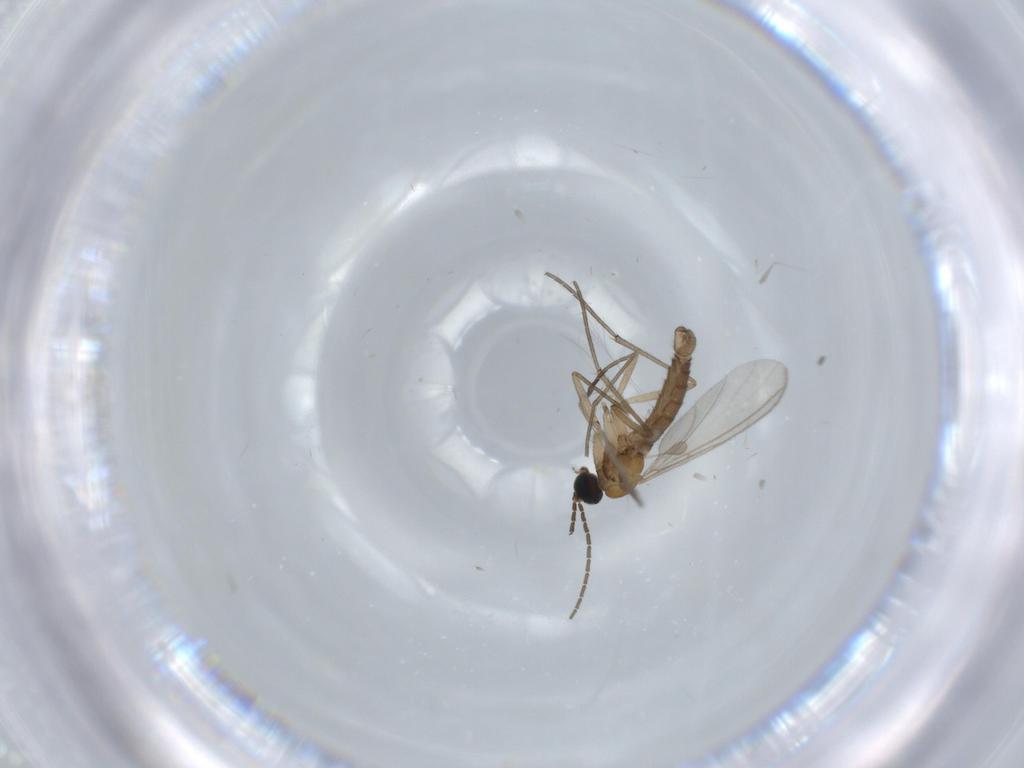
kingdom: Animalia
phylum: Arthropoda
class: Insecta
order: Diptera
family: Sciaridae
